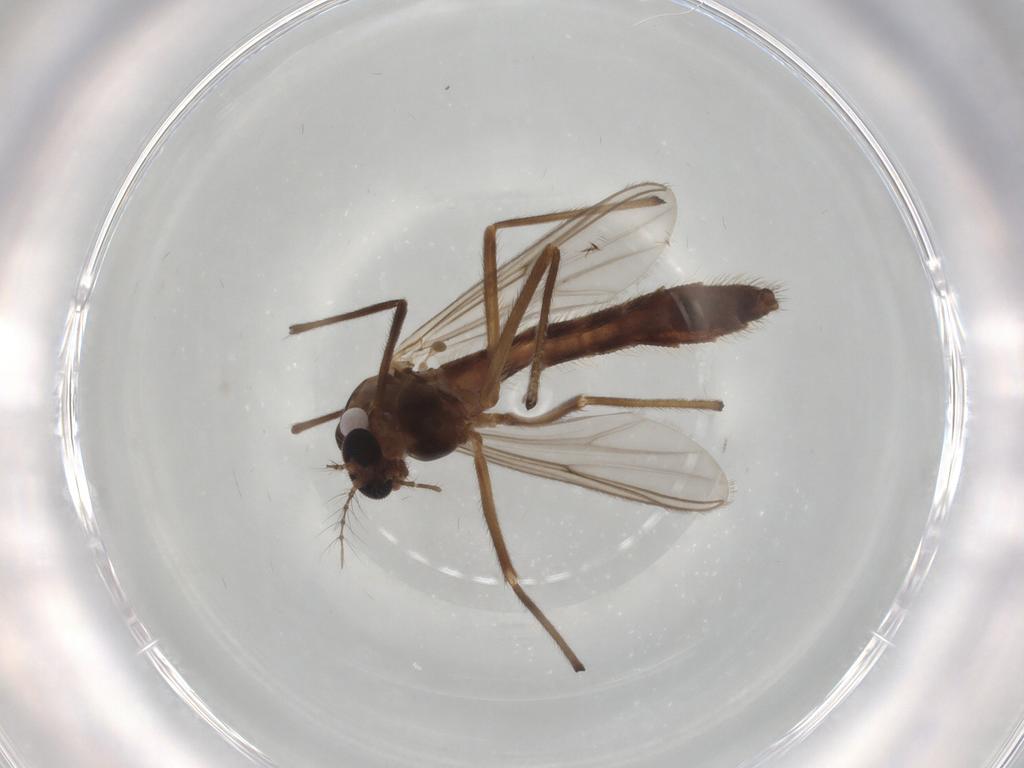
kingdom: Animalia
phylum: Arthropoda
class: Insecta
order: Diptera
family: Chironomidae
